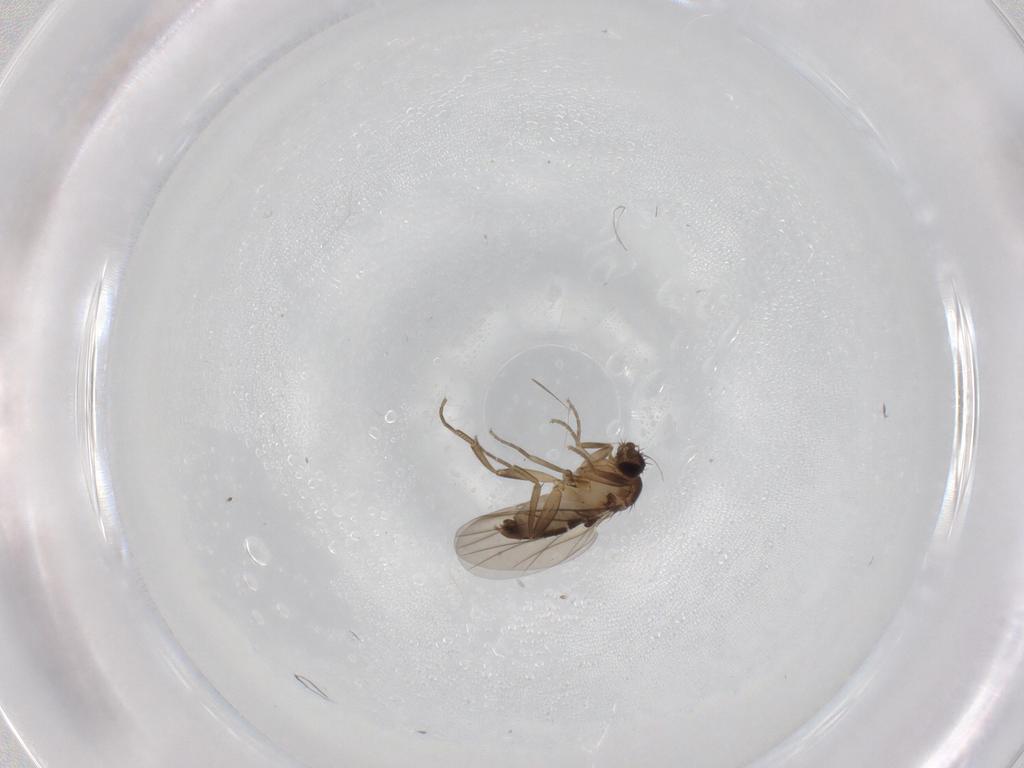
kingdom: Animalia
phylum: Arthropoda
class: Insecta
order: Diptera
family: Phoridae
